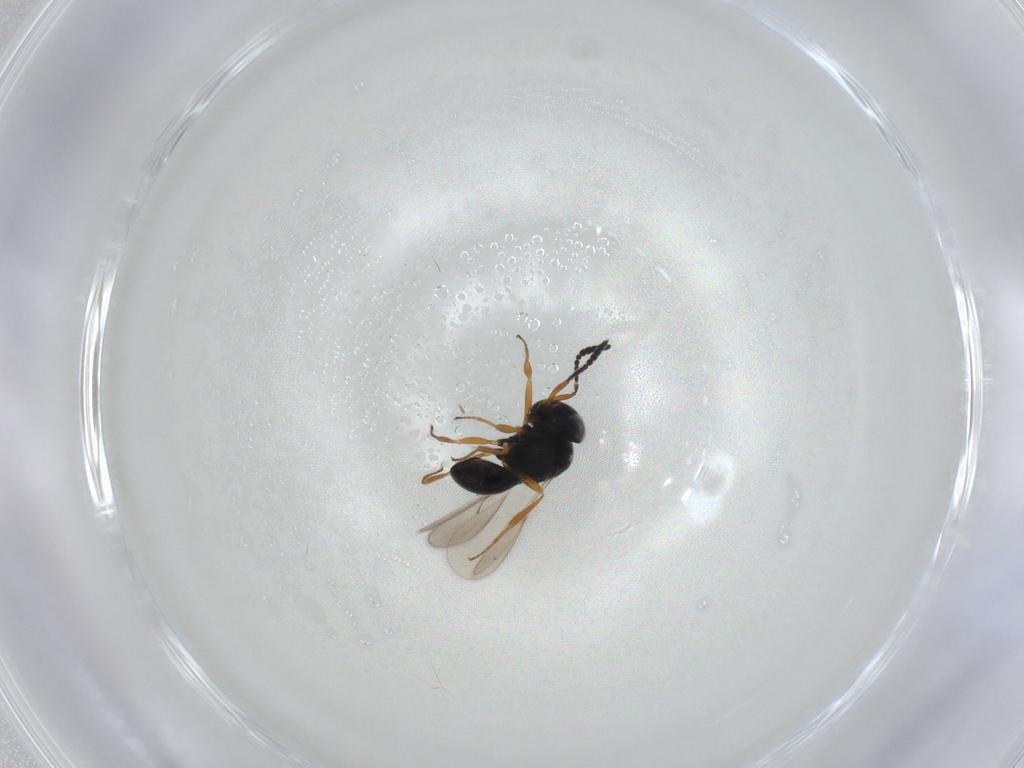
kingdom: Animalia
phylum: Arthropoda
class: Insecta
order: Hymenoptera
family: Scelionidae
